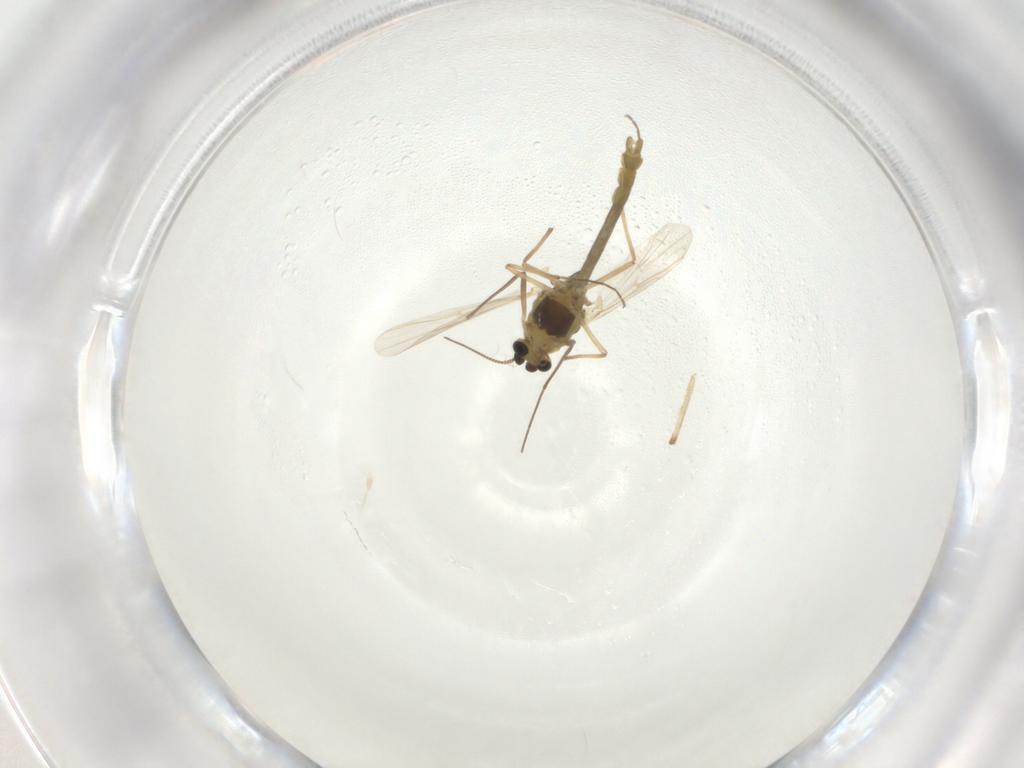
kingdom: Animalia
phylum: Arthropoda
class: Insecta
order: Diptera
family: Chironomidae
